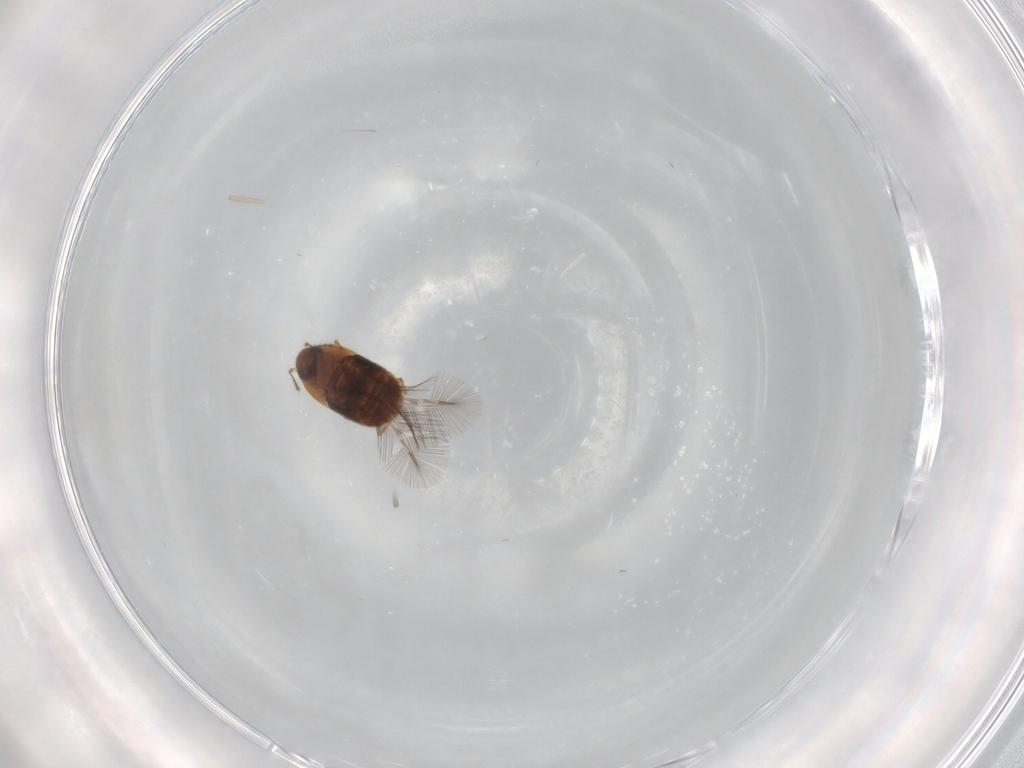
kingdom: Animalia
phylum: Arthropoda
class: Insecta
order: Coleoptera
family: Ptiliidae
